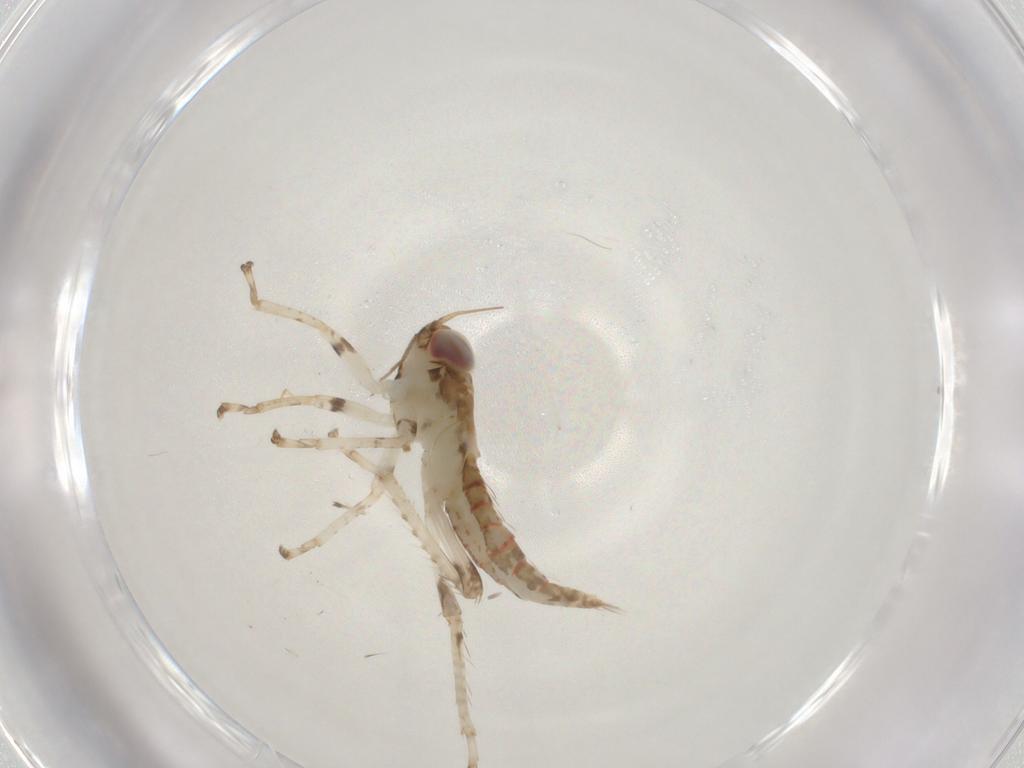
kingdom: Animalia
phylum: Arthropoda
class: Insecta
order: Hemiptera
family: Cicadellidae
